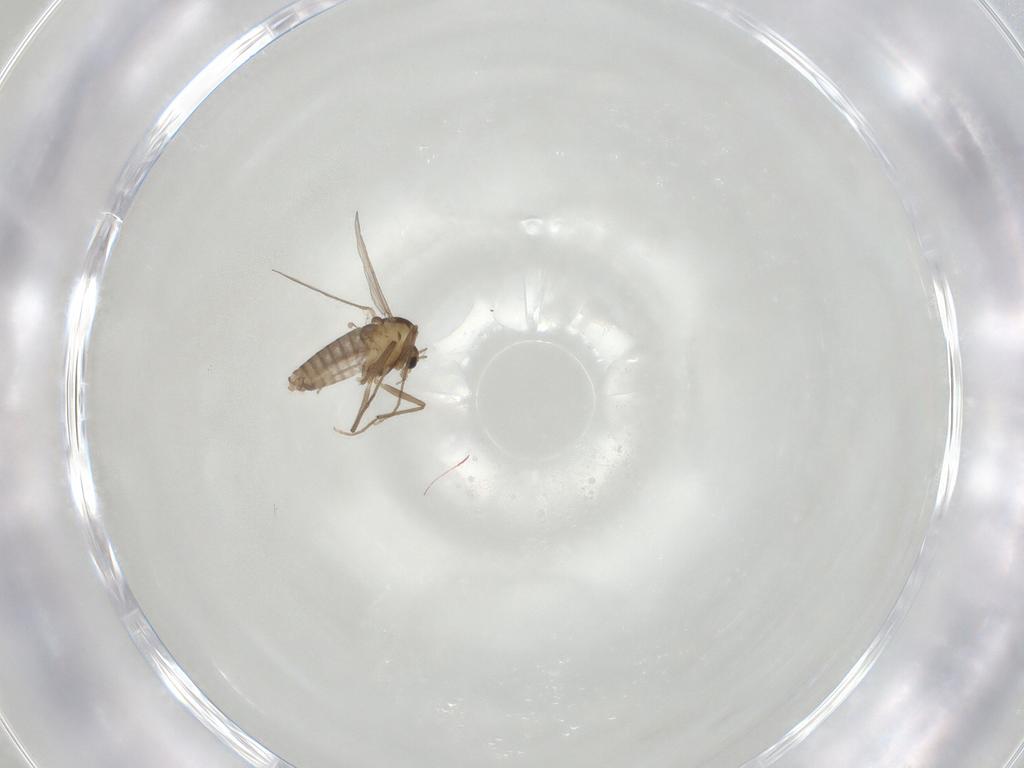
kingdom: Animalia
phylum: Arthropoda
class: Insecta
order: Diptera
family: Chironomidae
